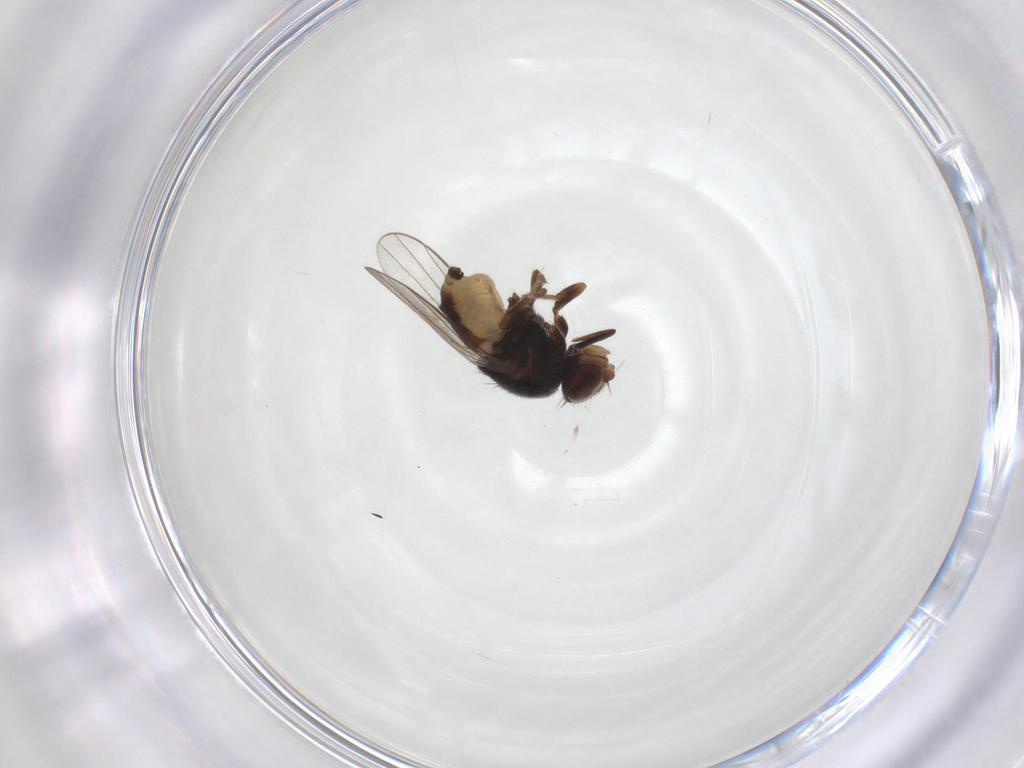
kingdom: Animalia
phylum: Arthropoda
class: Insecta
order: Diptera
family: Chloropidae
